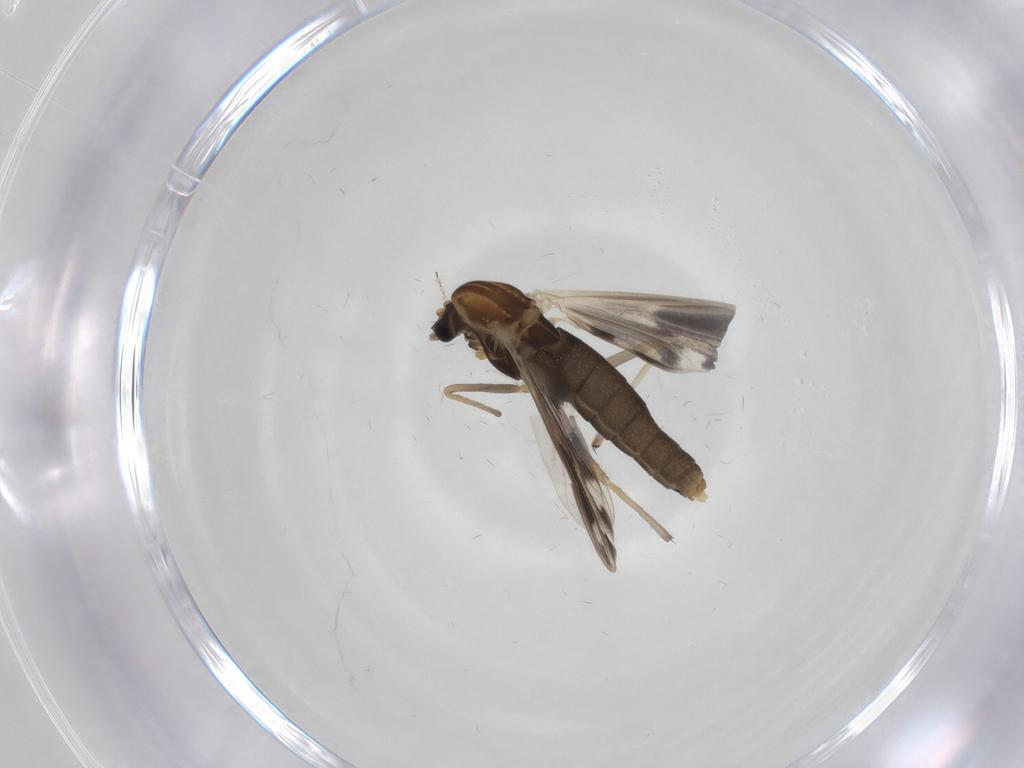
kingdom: Animalia
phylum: Arthropoda
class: Insecta
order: Diptera
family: Chironomidae
